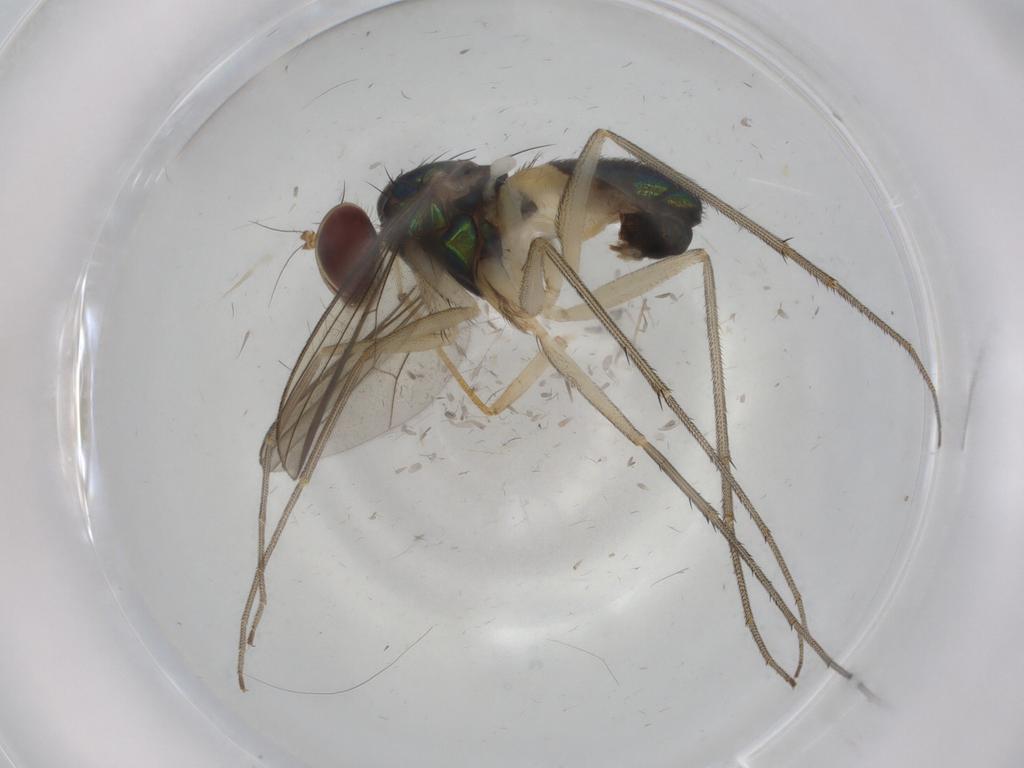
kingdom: Animalia
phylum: Arthropoda
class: Insecta
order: Diptera
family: Dolichopodidae
